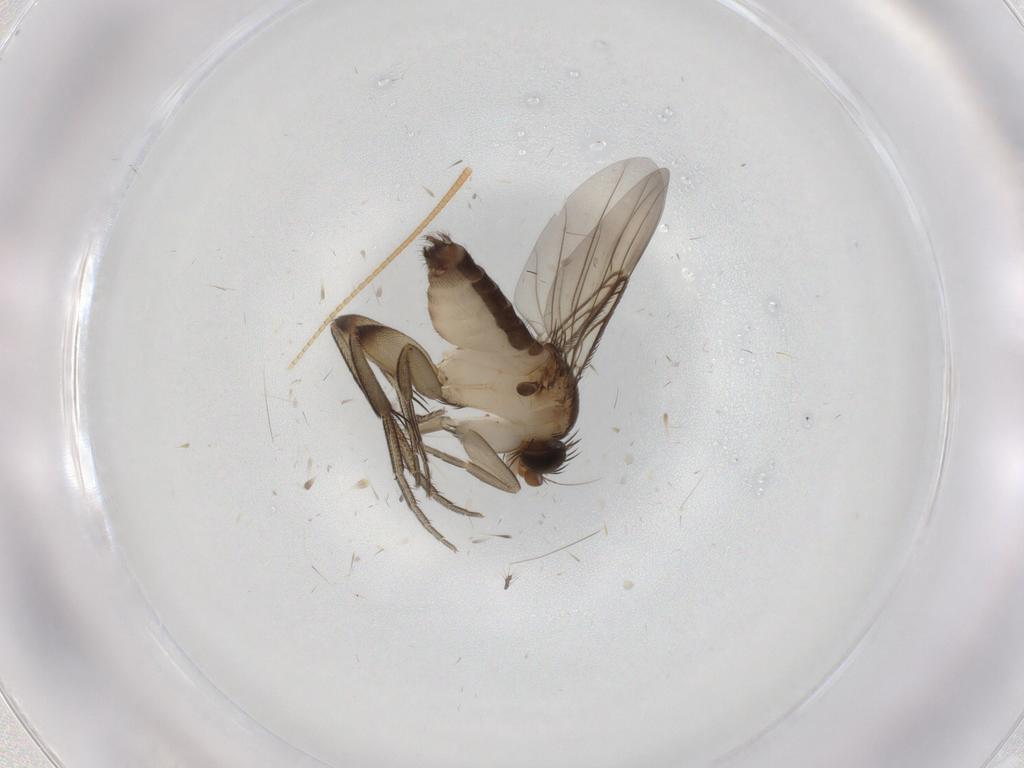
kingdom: Animalia
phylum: Arthropoda
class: Insecta
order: Diptera
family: Phoridae
